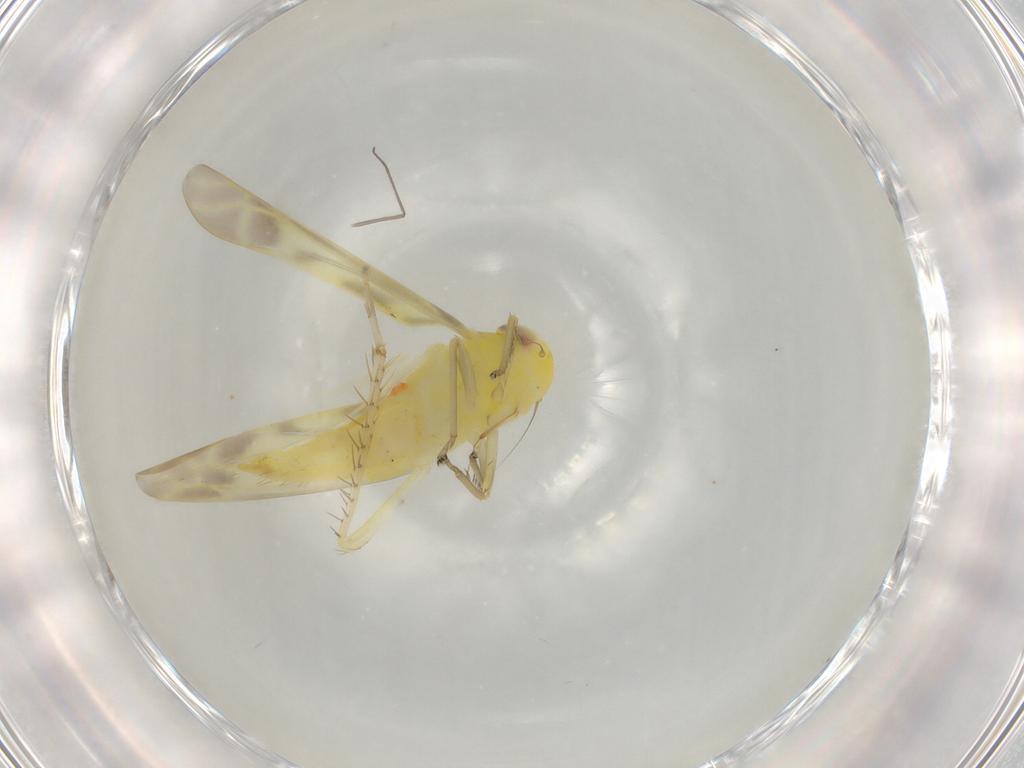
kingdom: Animalia
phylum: Arthropoda
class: Insecta
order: Hemiptera
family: Cicadellidae
